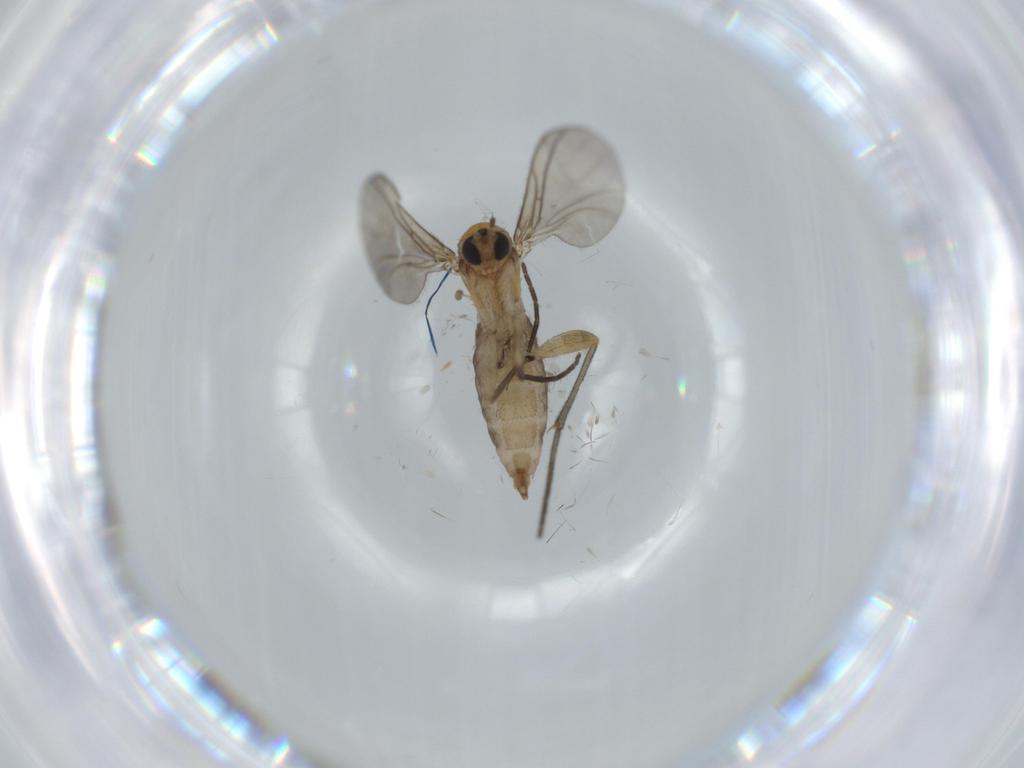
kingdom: Animalia
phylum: Arthropoda
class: Insecta
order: Diptera
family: Sciaridae
